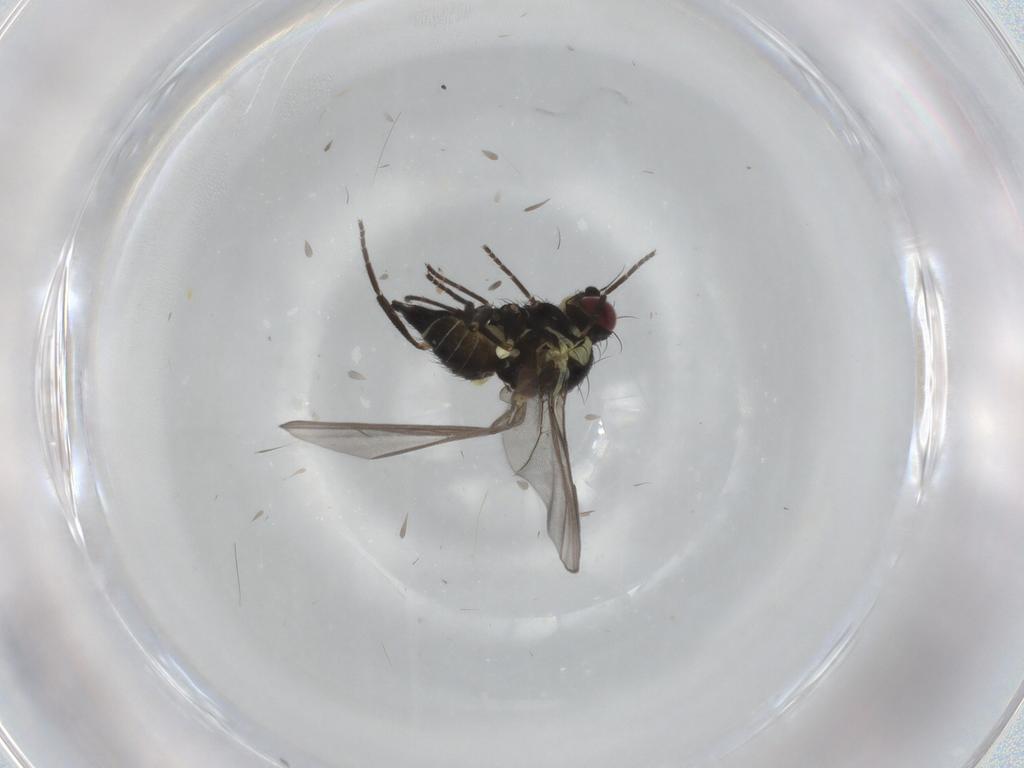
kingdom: Animalia
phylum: Arthropoda
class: Insecta
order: Diptera
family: Agromyzidae
